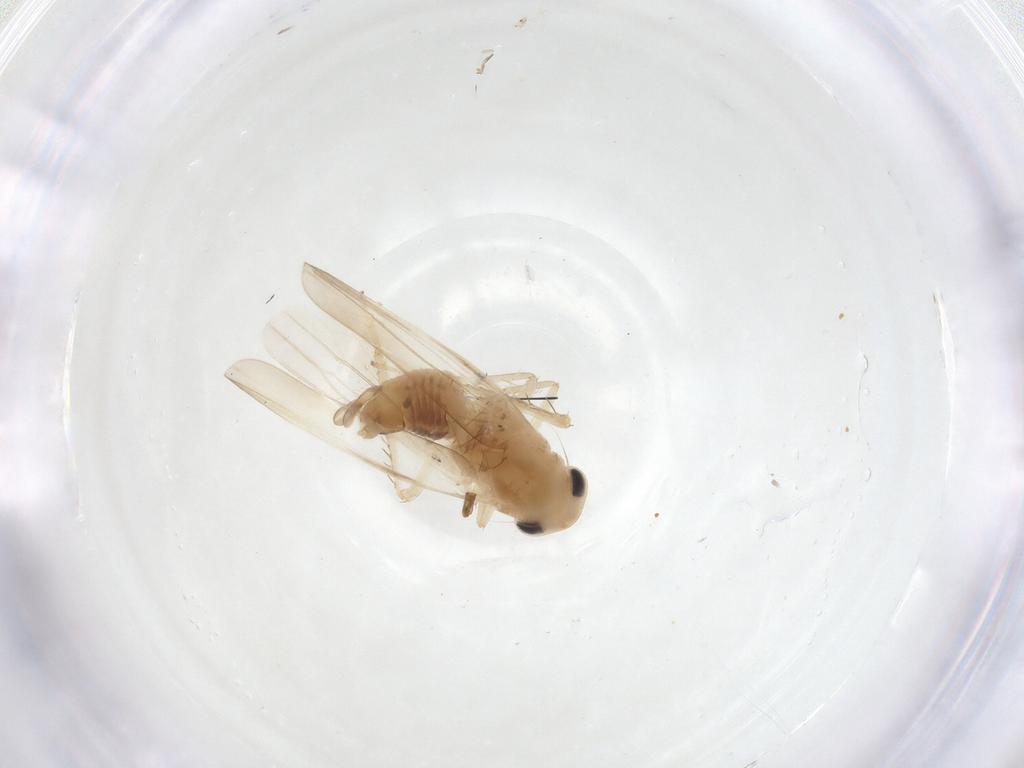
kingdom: Animalia
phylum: Arthropoda
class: Insecta
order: Hemiptera
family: Cicadellidae
